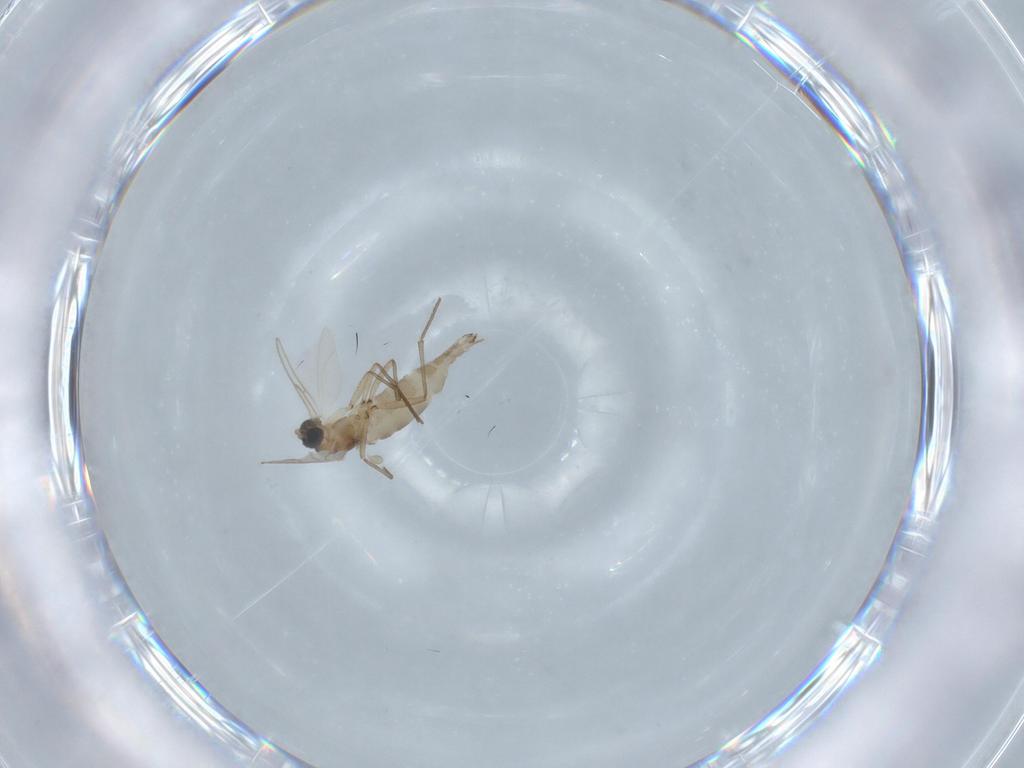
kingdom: Animalia
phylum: Arthropoda
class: Insecta
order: Diptera
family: Sciaridae
